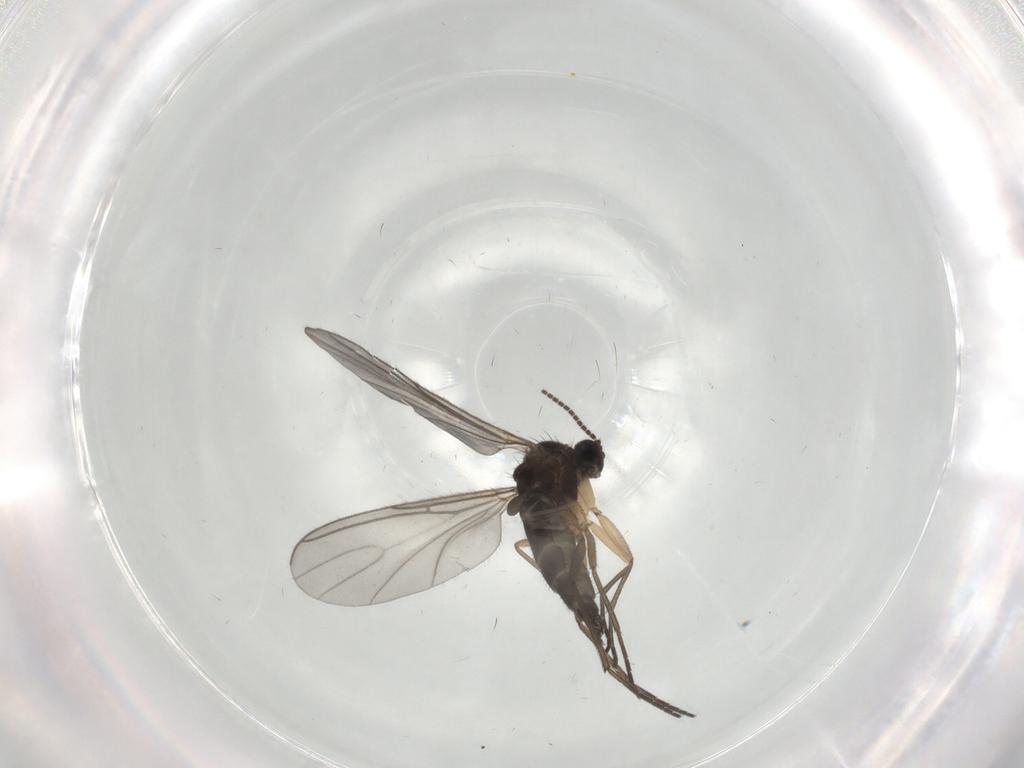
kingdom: Animalia
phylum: Arthropoda
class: Insecta
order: Diptera
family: Sciaridae
